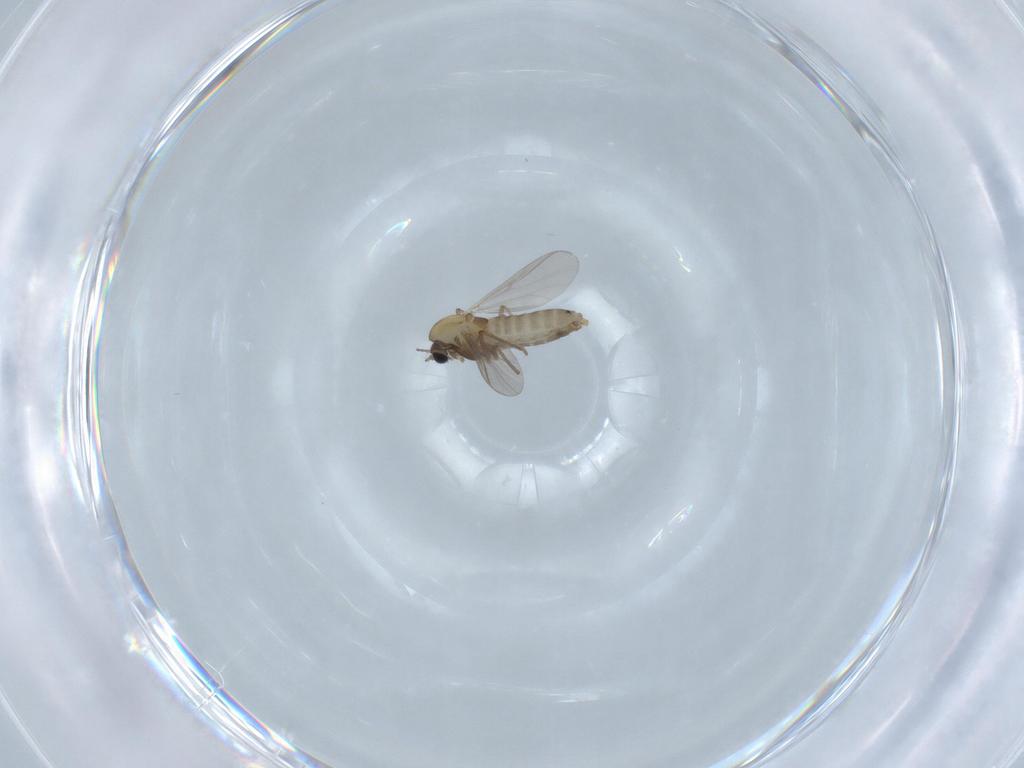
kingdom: Animalia
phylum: Arthropoda
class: Insecta
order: Diptera
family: Chironomidae
